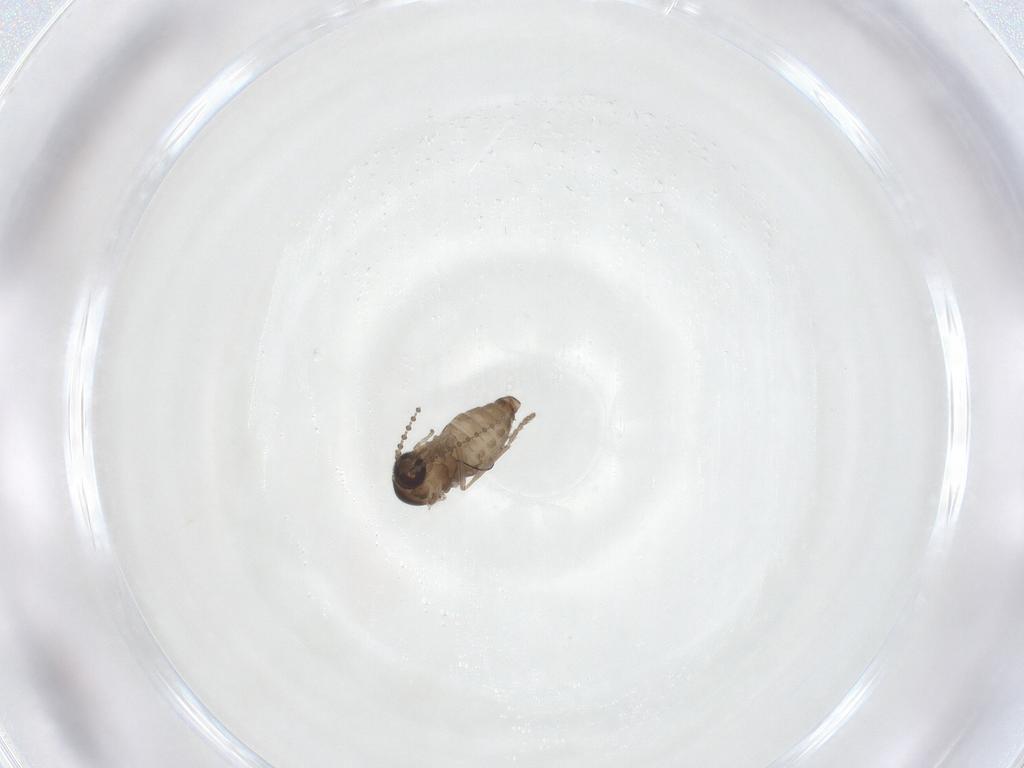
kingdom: Animalia
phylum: Arthropoda
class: Insecta
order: Diptera
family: Psychodidae
